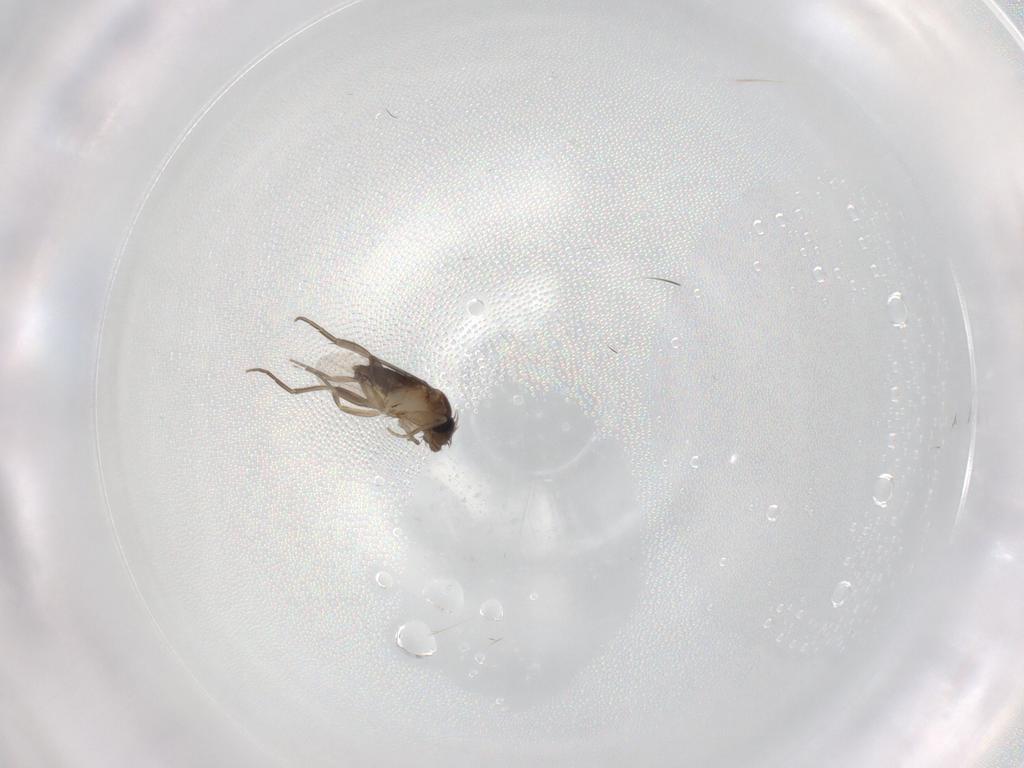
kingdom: Animalia
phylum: Arthropoda
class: Insecta
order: Diptera
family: Phoridae
